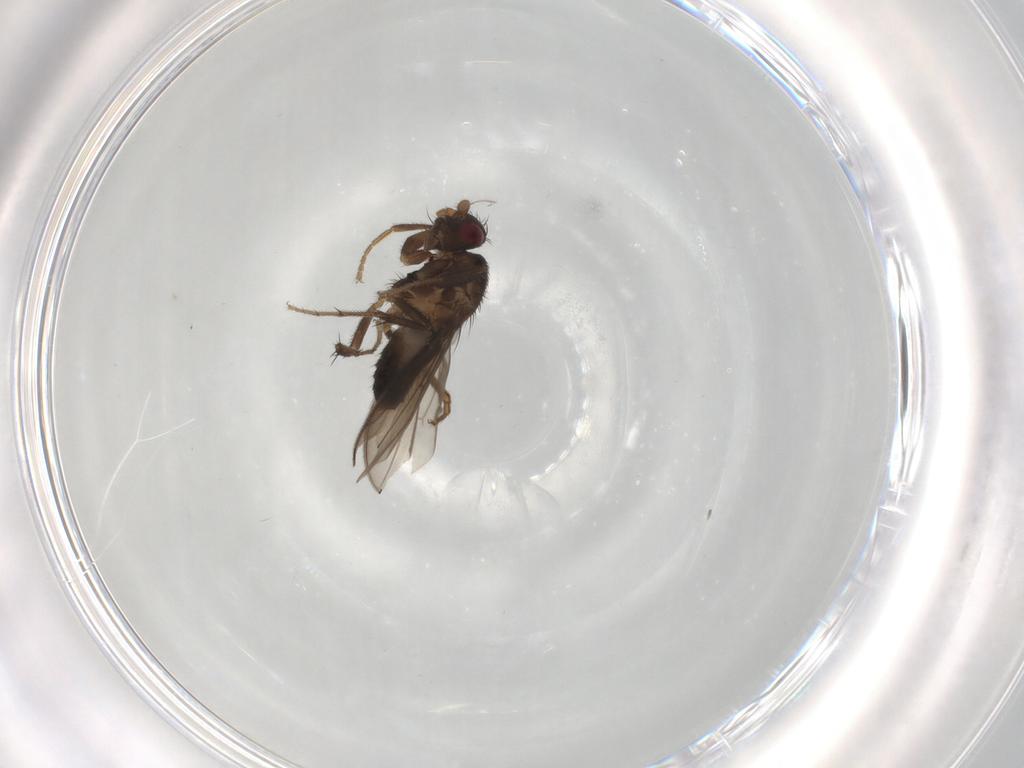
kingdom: Animalia
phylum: Arthropoda
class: Insecta
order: Diptera
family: Sphaeroceridae
